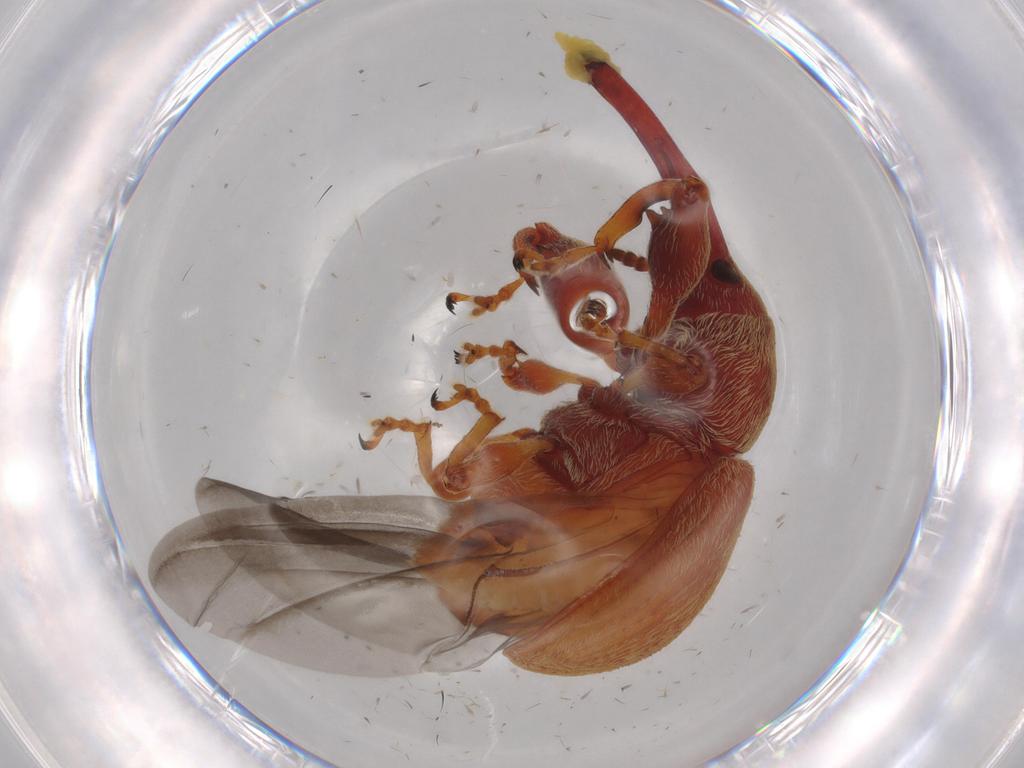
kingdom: Animalia
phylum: Arthropoda
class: Insecta
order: Coleoptera
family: Curculionidae
